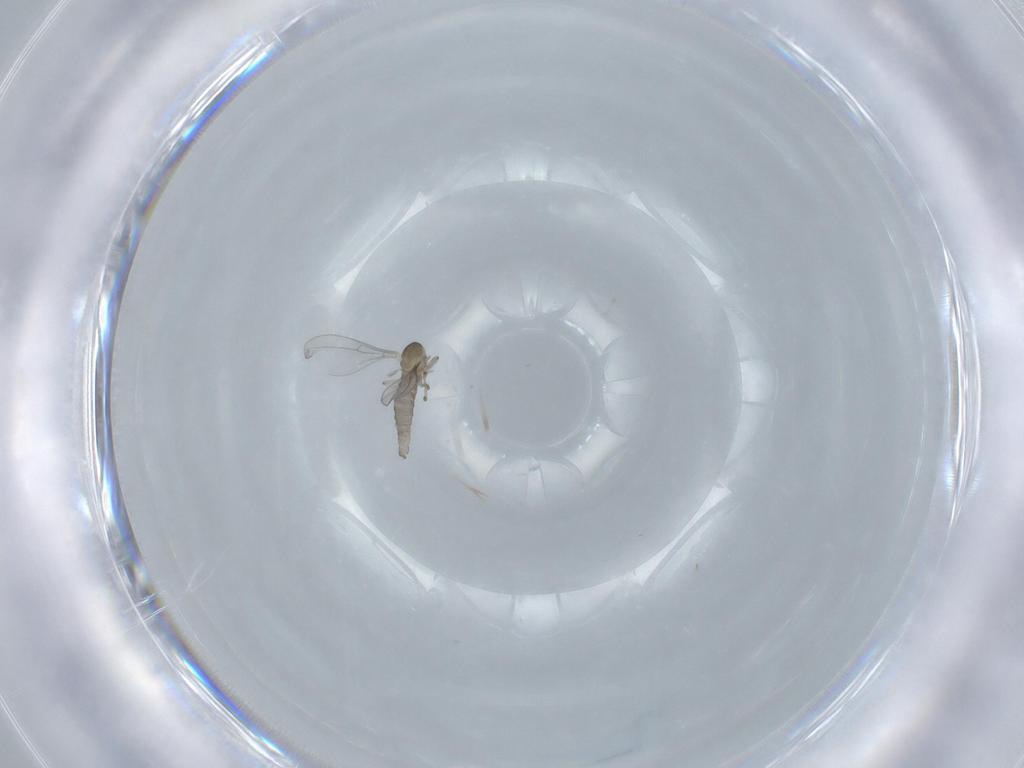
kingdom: Animalia
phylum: Arthropoda
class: Insecta
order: Diptera
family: Cecidomyiidae
